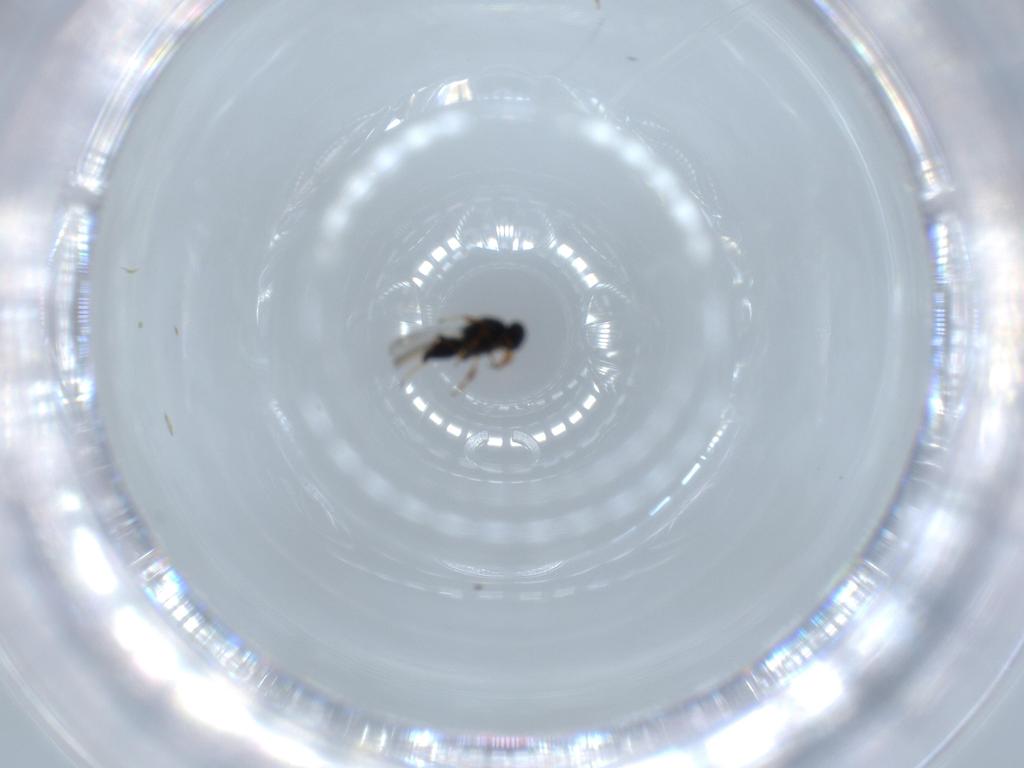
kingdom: Animalia
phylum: Arthropoda
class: Insecta
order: Hymenoptera
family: Platygastridae
